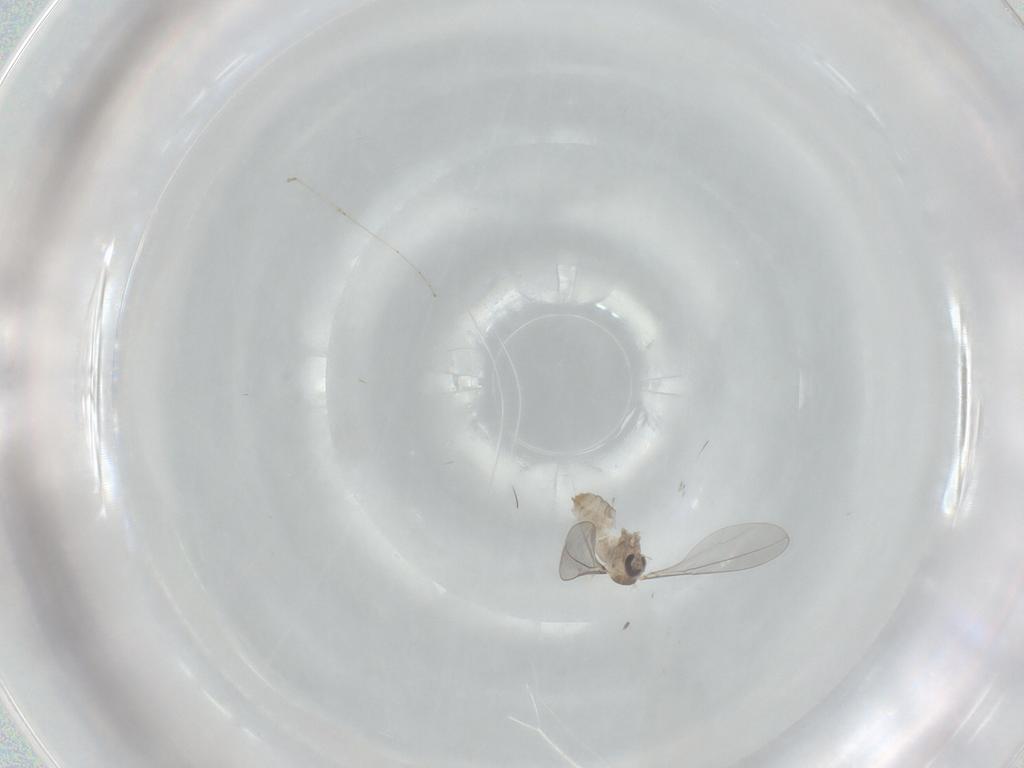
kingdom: Animalia
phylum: Arthropoda
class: Insecta
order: Diptera
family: Cecidomyiidae
